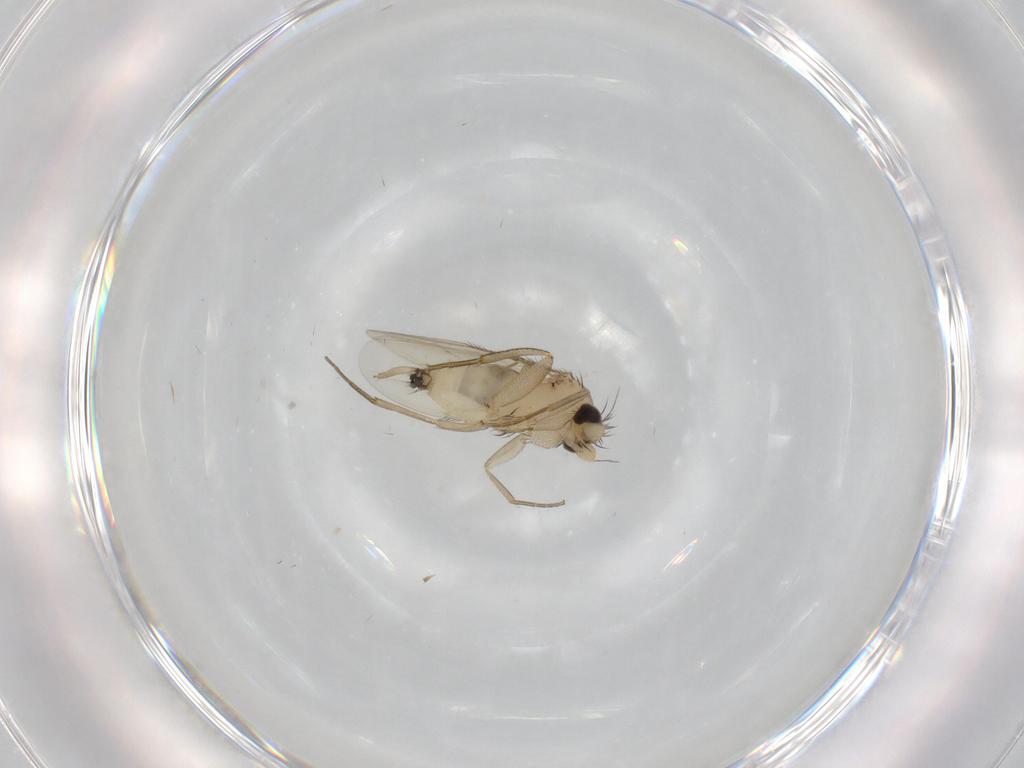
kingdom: Animalia
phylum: Arthropoda
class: Insecta
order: Diptera
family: Phoridae
